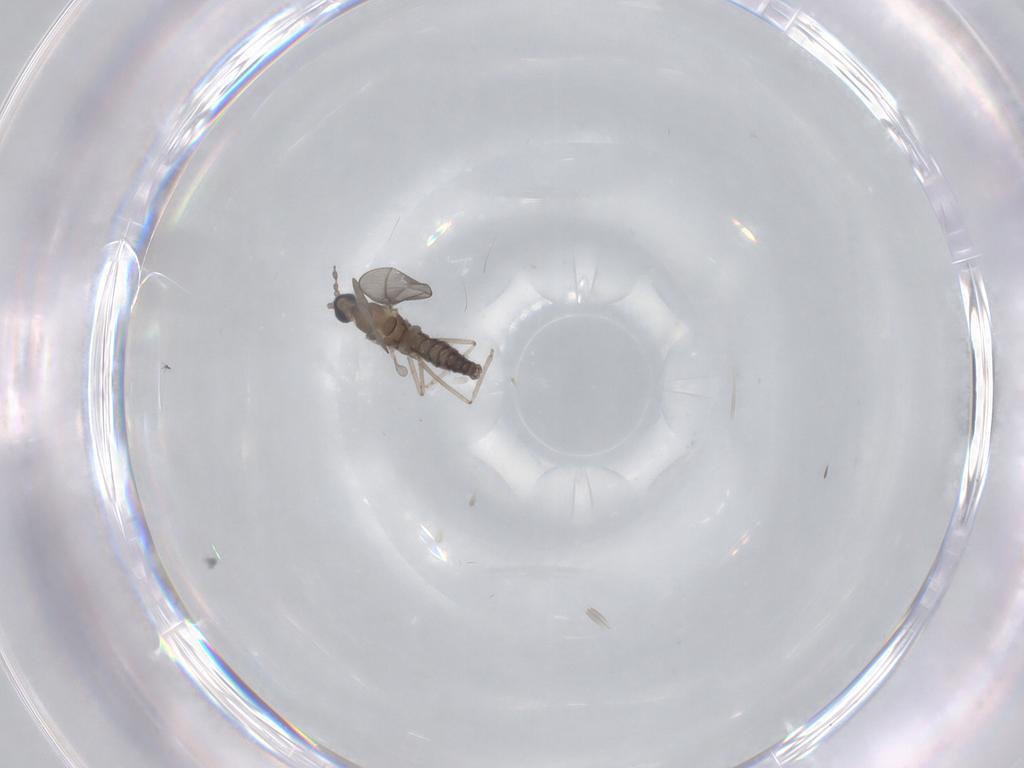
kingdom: Animalia
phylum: Arthropoda
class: Insecta
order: Diptera
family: Cecidomyiidae
